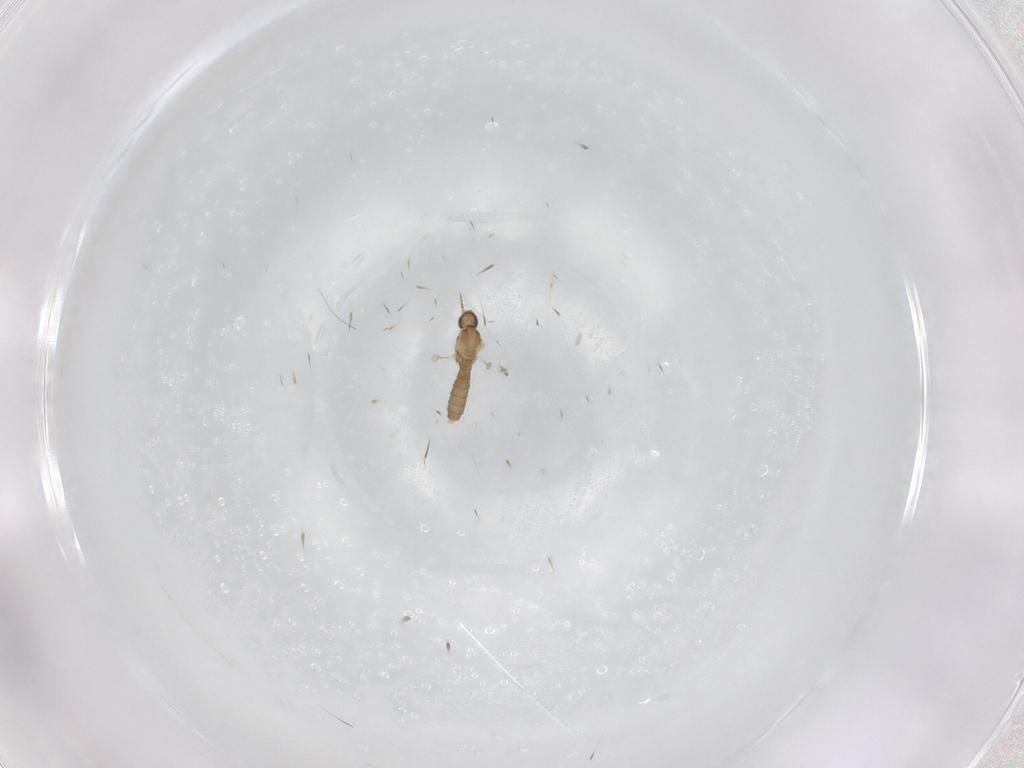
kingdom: Animalia
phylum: Arthropoda
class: Insecta
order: Diptera
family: Cecidomyiidae
